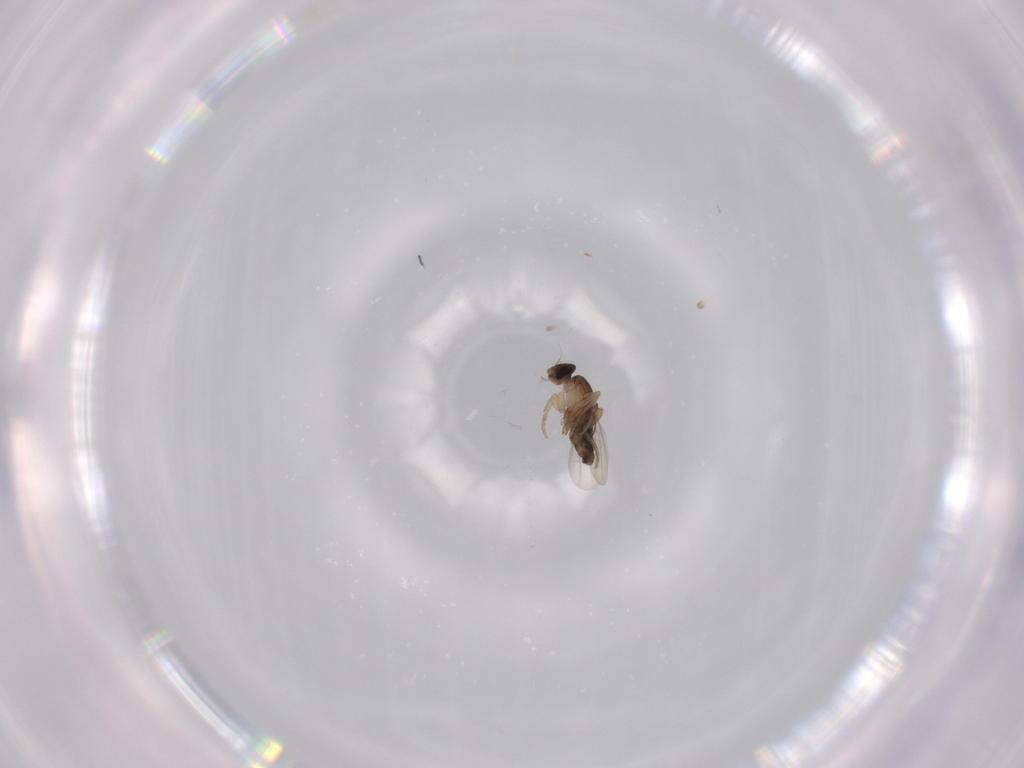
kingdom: Animalia
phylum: Arthropoda
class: Insecta
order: Diptera
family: Phoridae
